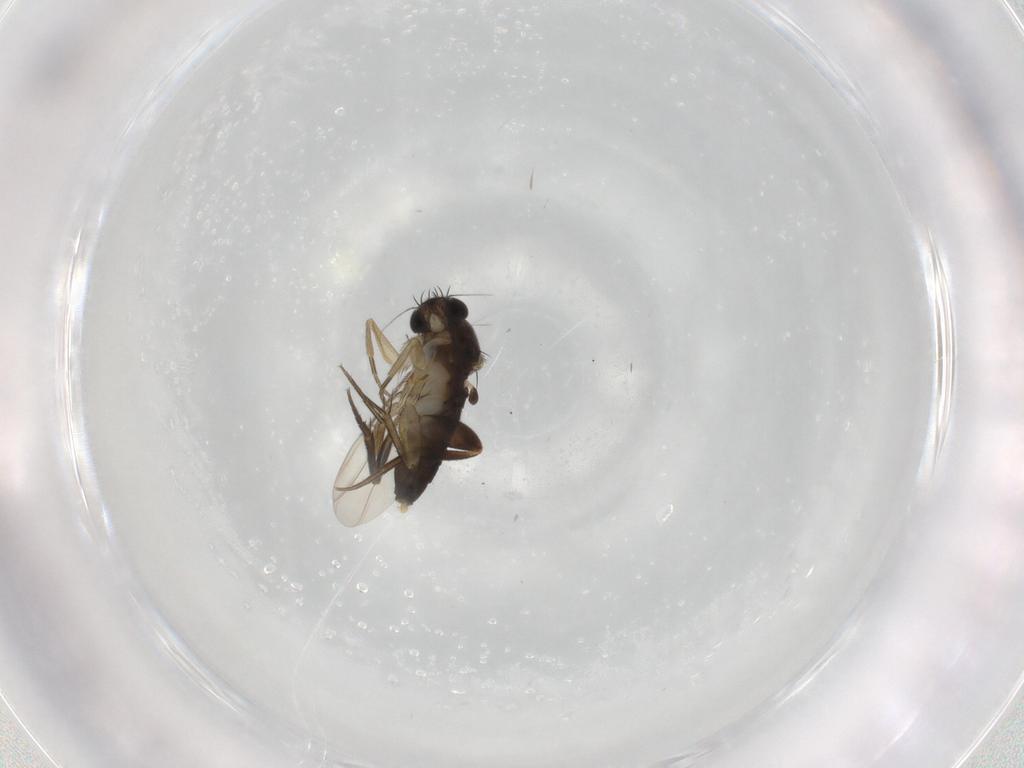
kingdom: Animalia
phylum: Arthropoda
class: Insecta
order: Diptera
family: Phoridae
